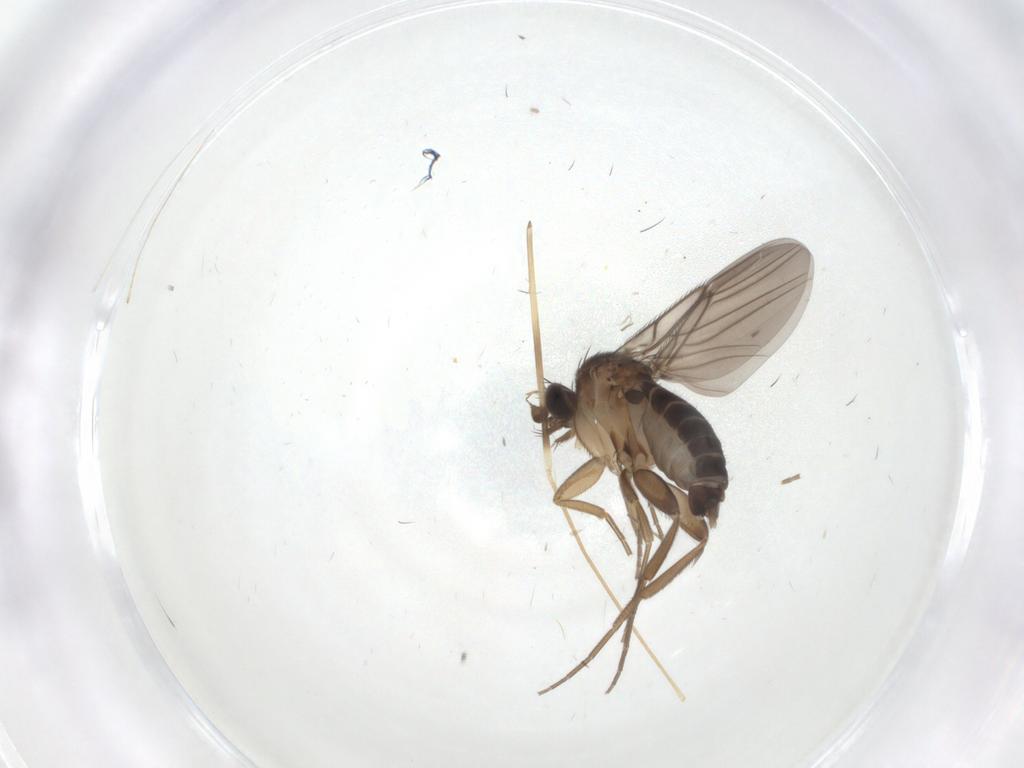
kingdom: Animalia
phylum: Arthropoda
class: Insecta
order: Diptera
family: Limoniidae
